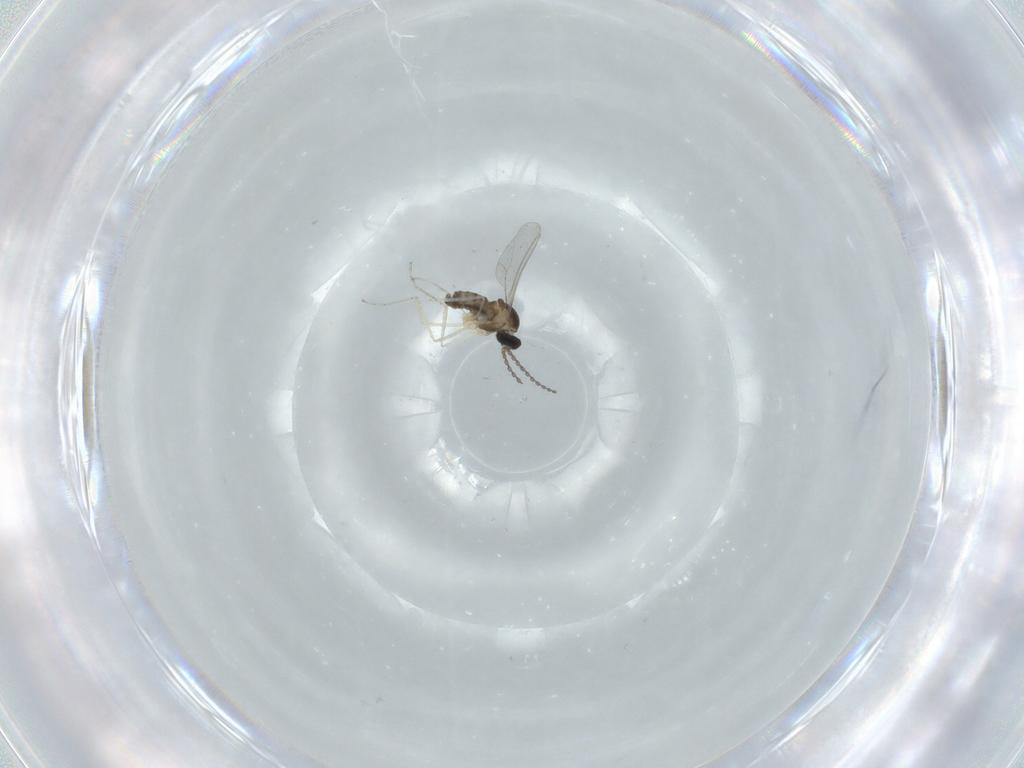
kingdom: Animalia
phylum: Arthropoda
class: Insecta
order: Diptera
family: Cecidomyiidae
